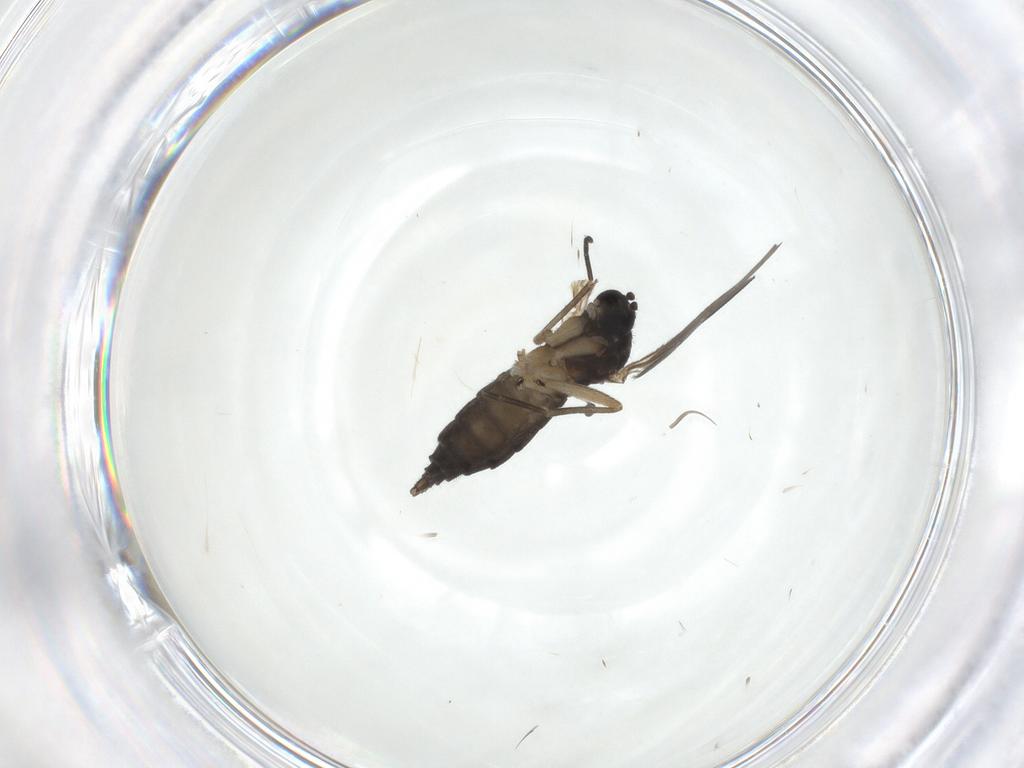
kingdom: Animalia
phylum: Arthropoda
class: Insecta
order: Diptera
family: Sciaridae
